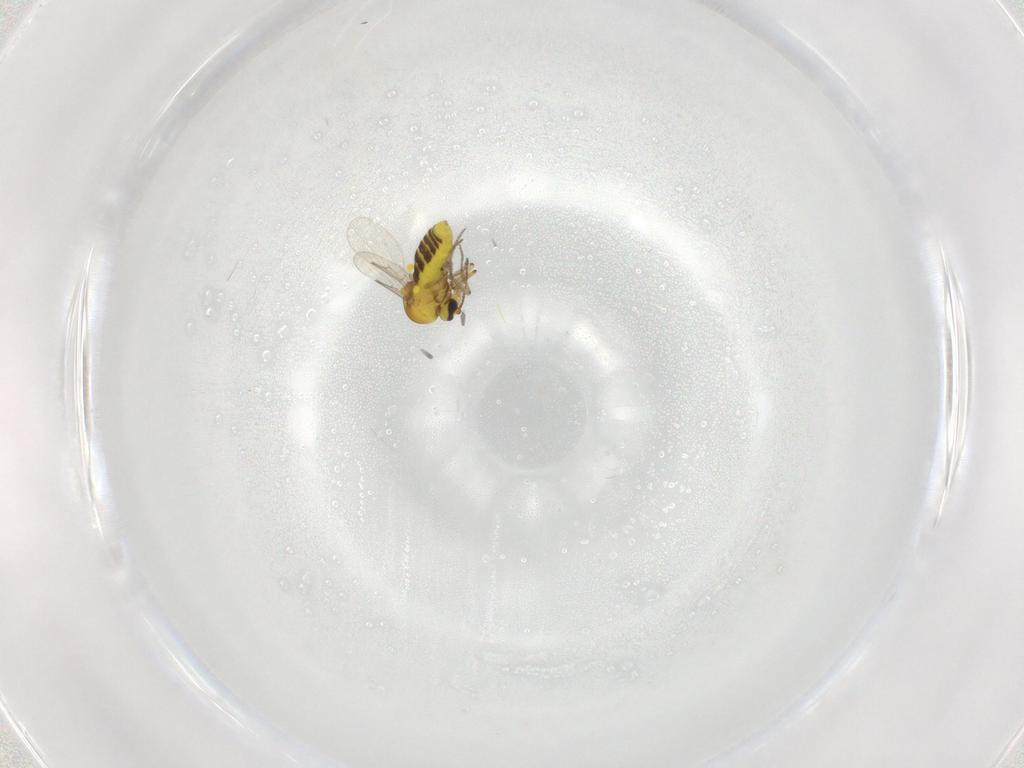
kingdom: Animalia
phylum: Arthropoda
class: Insecta
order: Diptera
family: Ceratopogonidae
